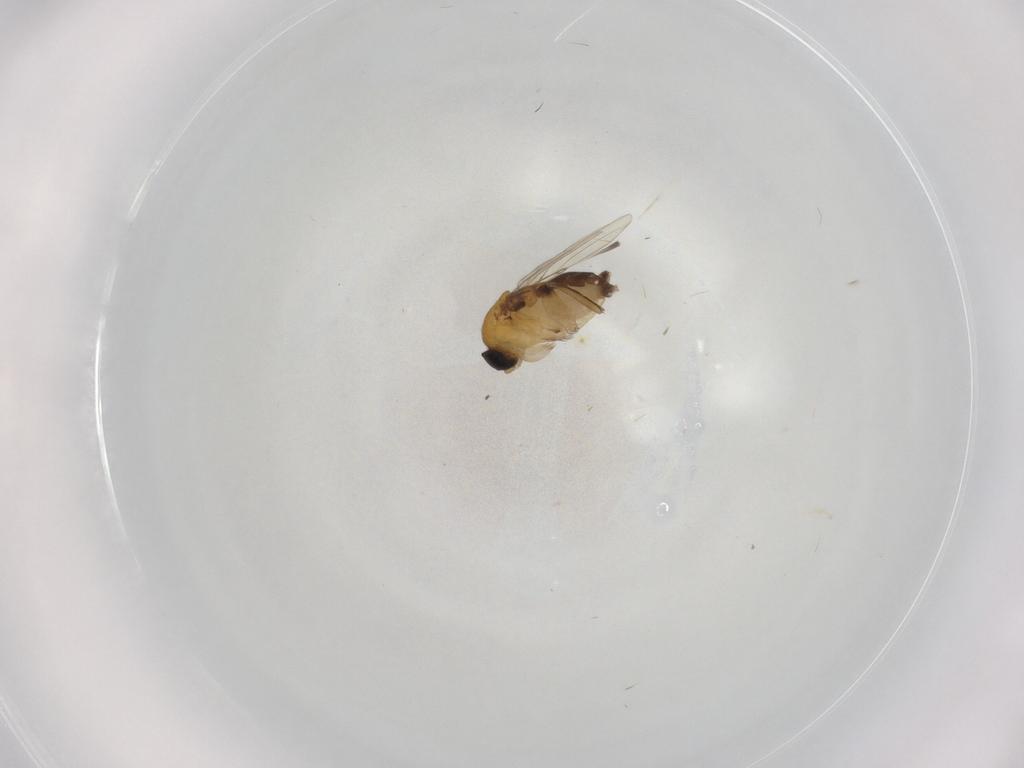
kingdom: Animalia
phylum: Arthropoda
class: Insecta
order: Diptera
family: Phoridae
